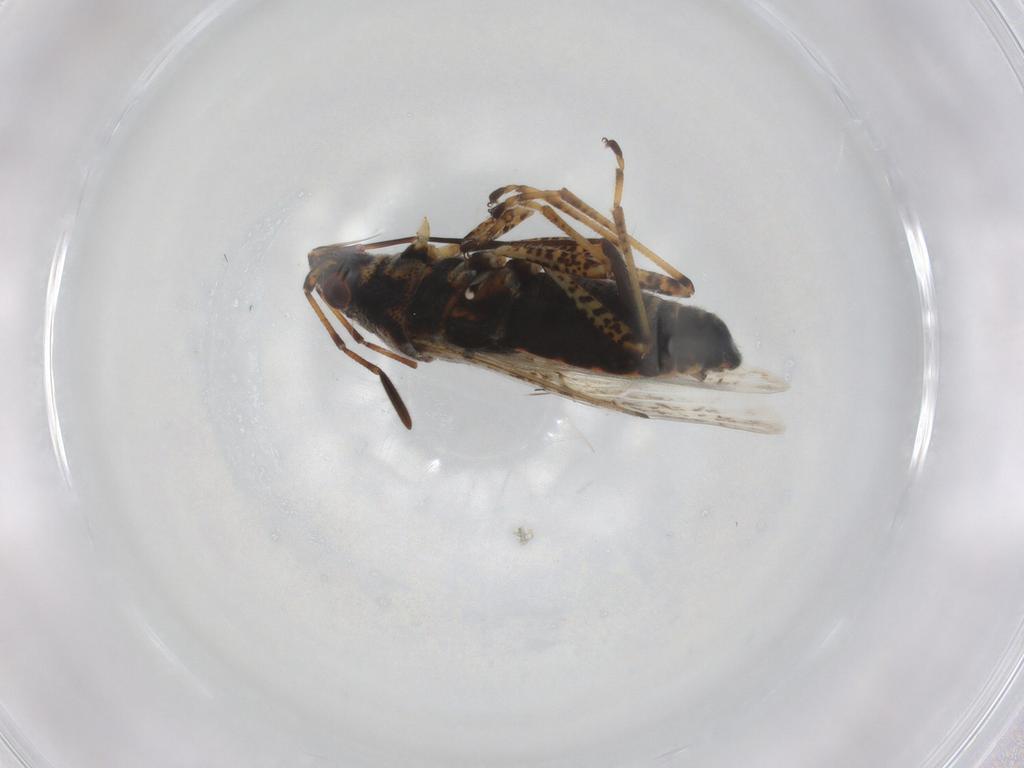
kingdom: Animalia
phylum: Arthropoda
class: Insecta
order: Hemiptera
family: Lygaeidae
